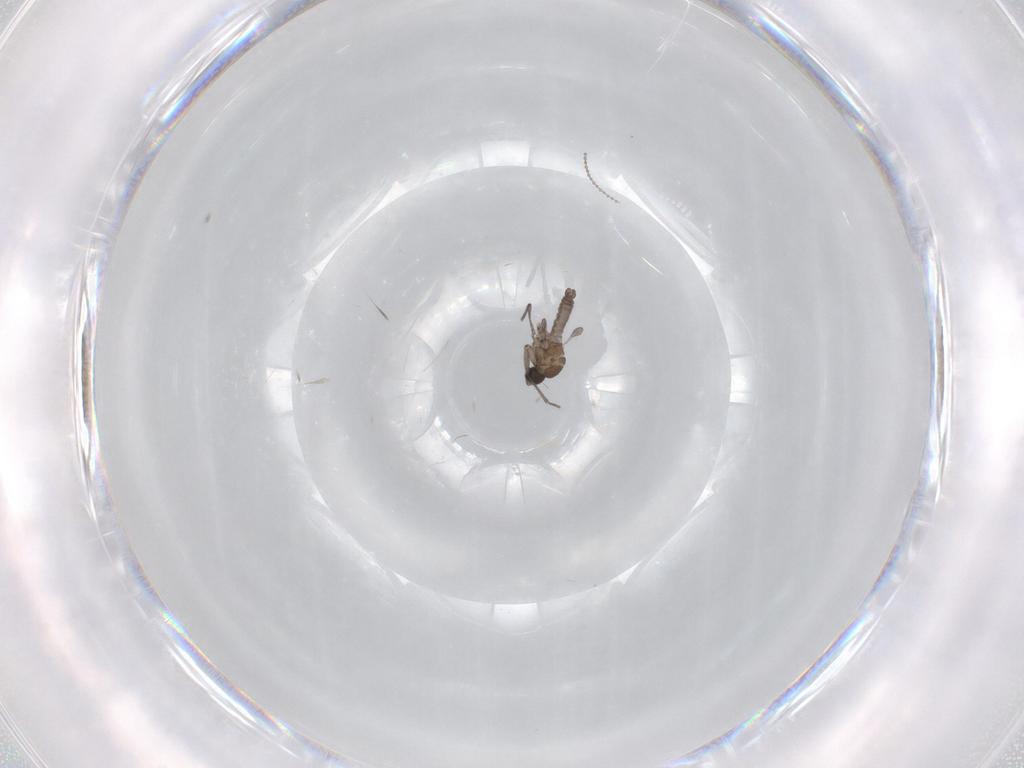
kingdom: Animalia
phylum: Arthropoda
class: Insecta
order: Diptera
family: Sciaridae
